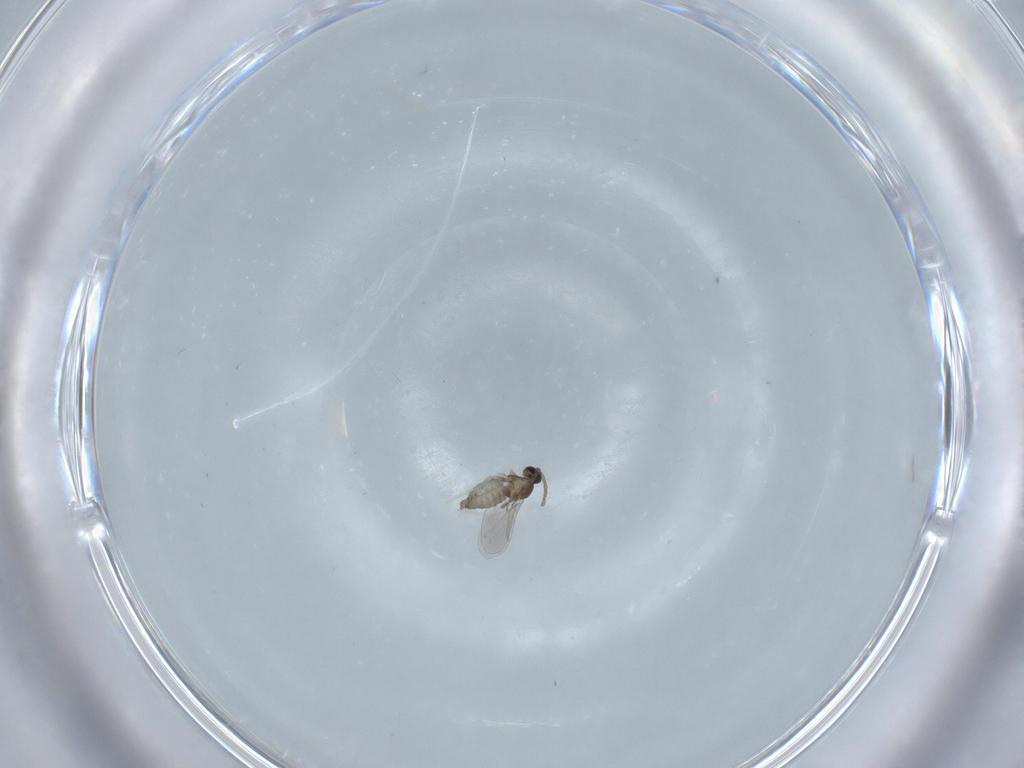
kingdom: Animalia
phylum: Arthropoda
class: Insecta
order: Diptera
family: Cecidomyiidae
